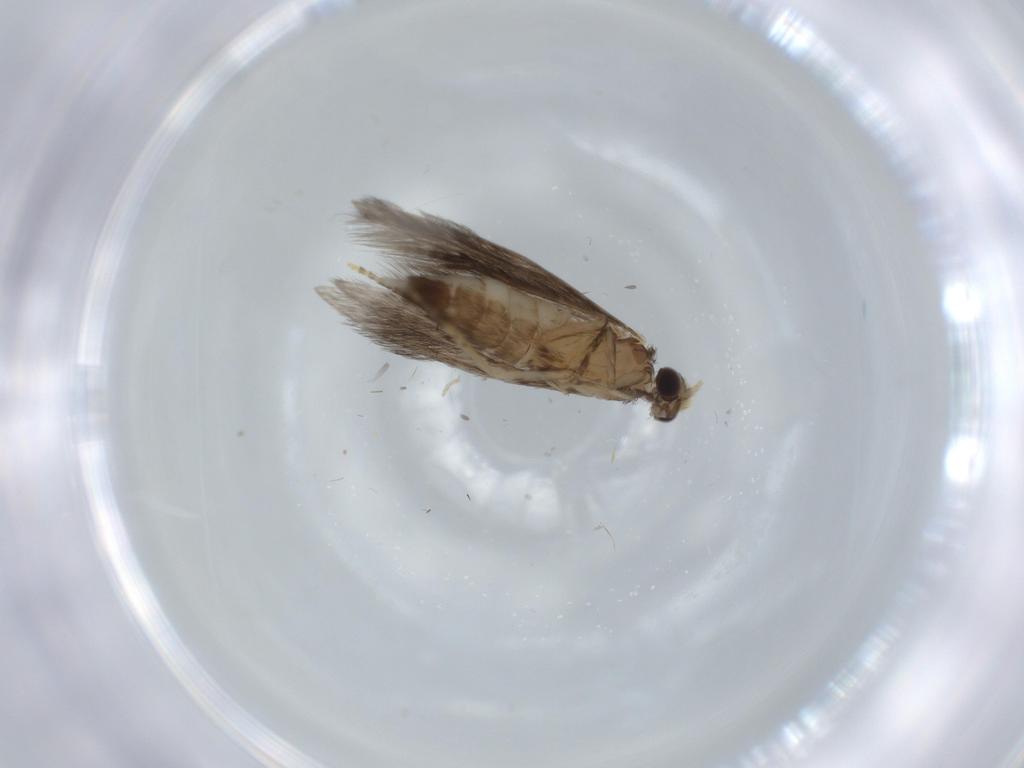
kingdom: Animalia
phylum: Arthropoda
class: Insecta
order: Trichoptera
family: Hydroptilidae
